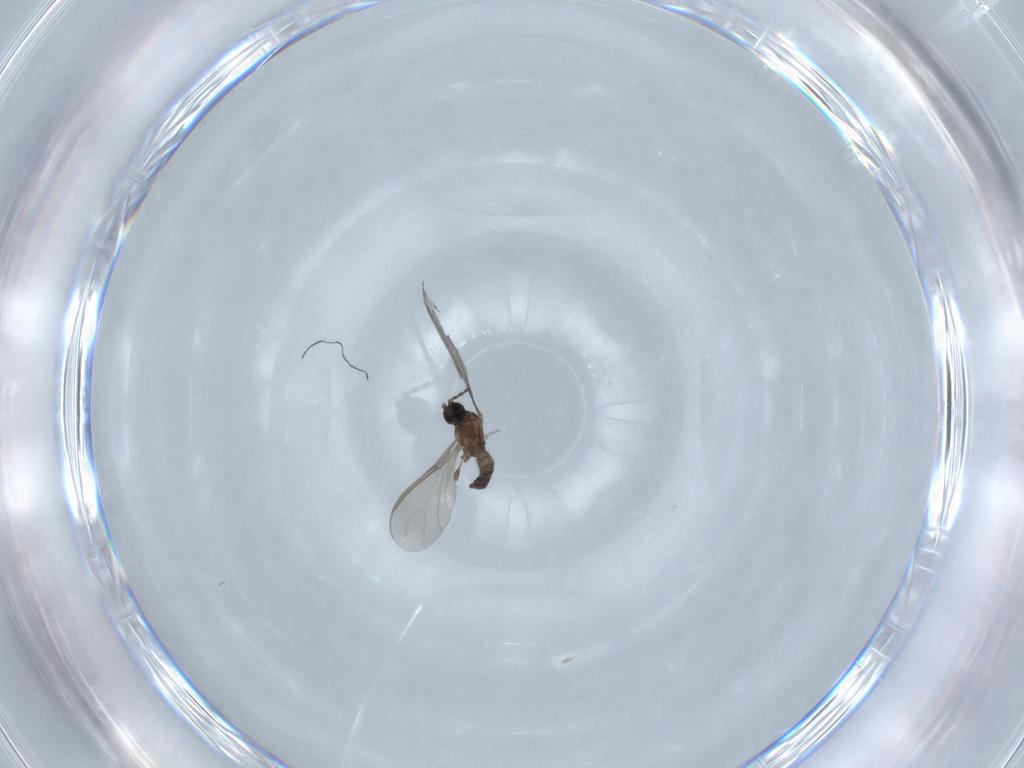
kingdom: Animalia
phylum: Arthropoda
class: Insecta
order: Diptera
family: Sciaridae
